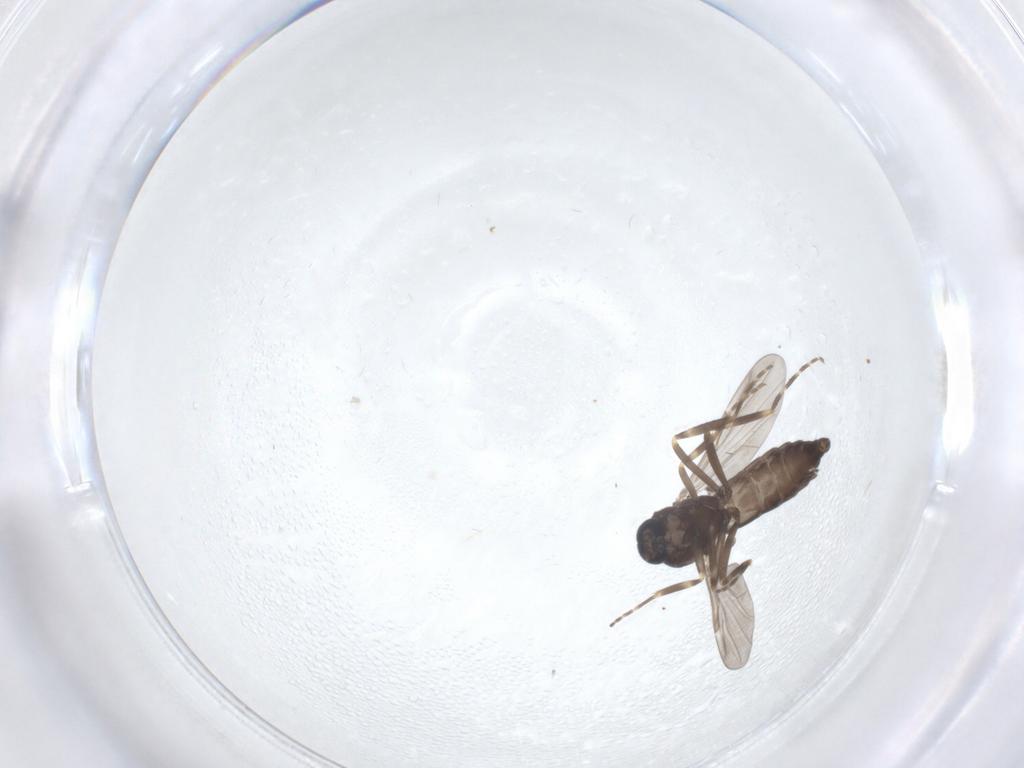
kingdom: Animalia
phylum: Arthropoda
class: Insecta
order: Diptera
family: Ceratopogonidae
